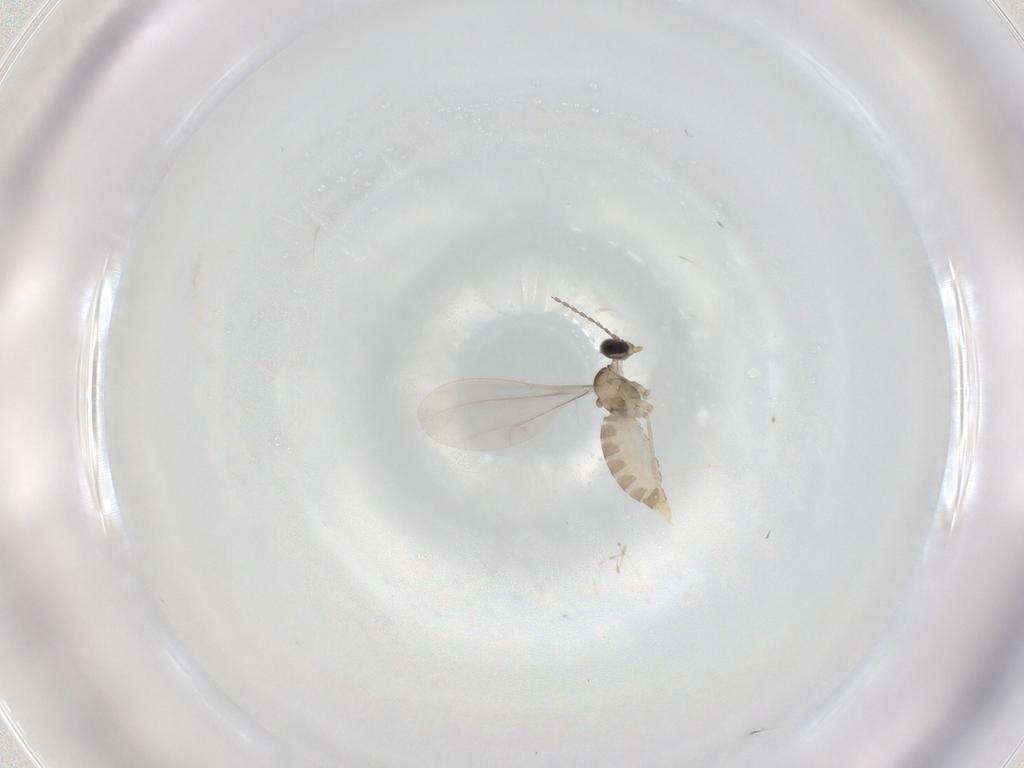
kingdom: Animalia
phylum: Arthropoda
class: Insecta
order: Diptera
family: Cecidomyiidae
